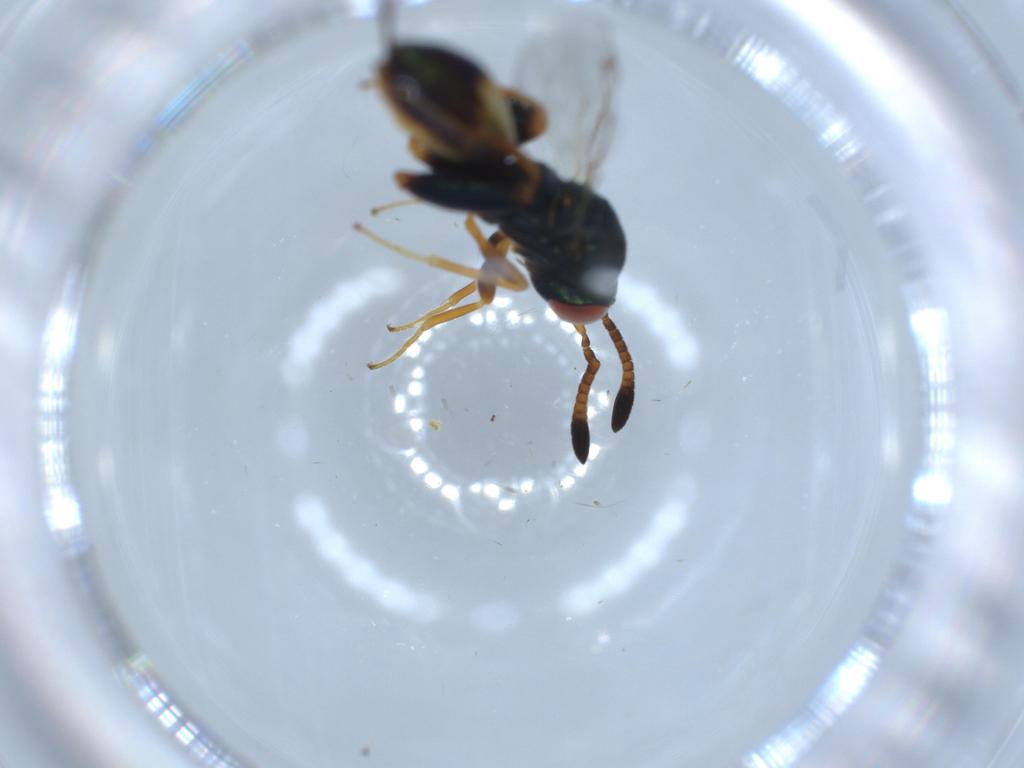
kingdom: Animalia
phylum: Arthropoda
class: Insecta
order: Hymenoptera
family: Torymidae
